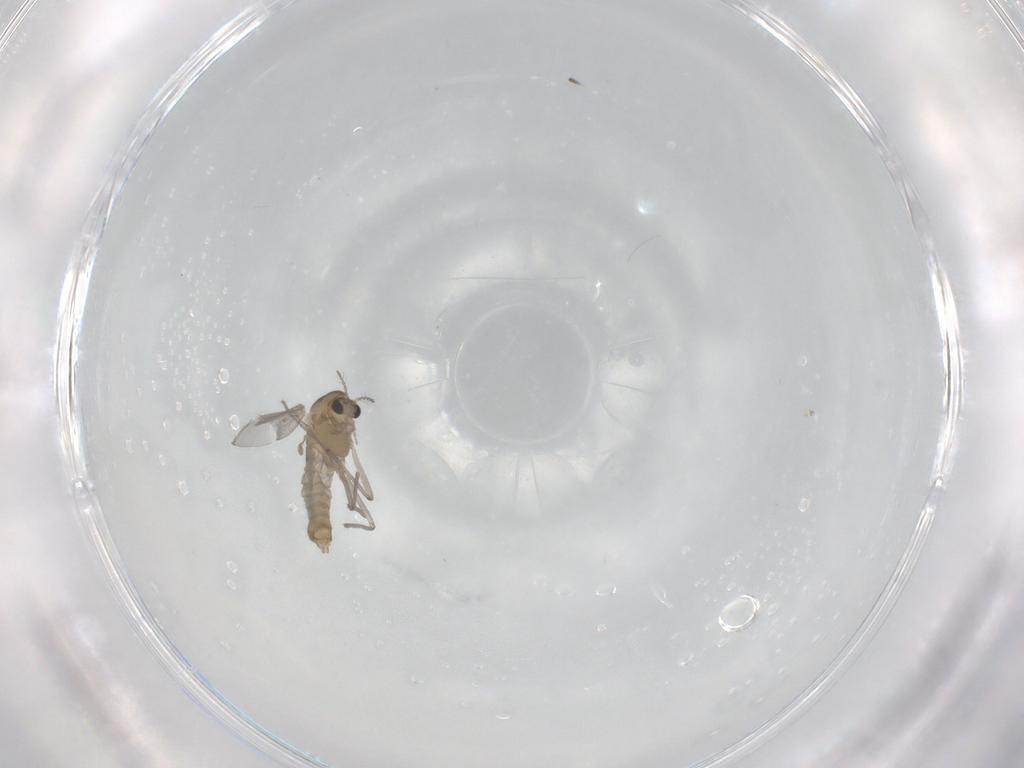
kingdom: Animalia
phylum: Arthropoda
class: Insecta
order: Diptera
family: Chironomidae
